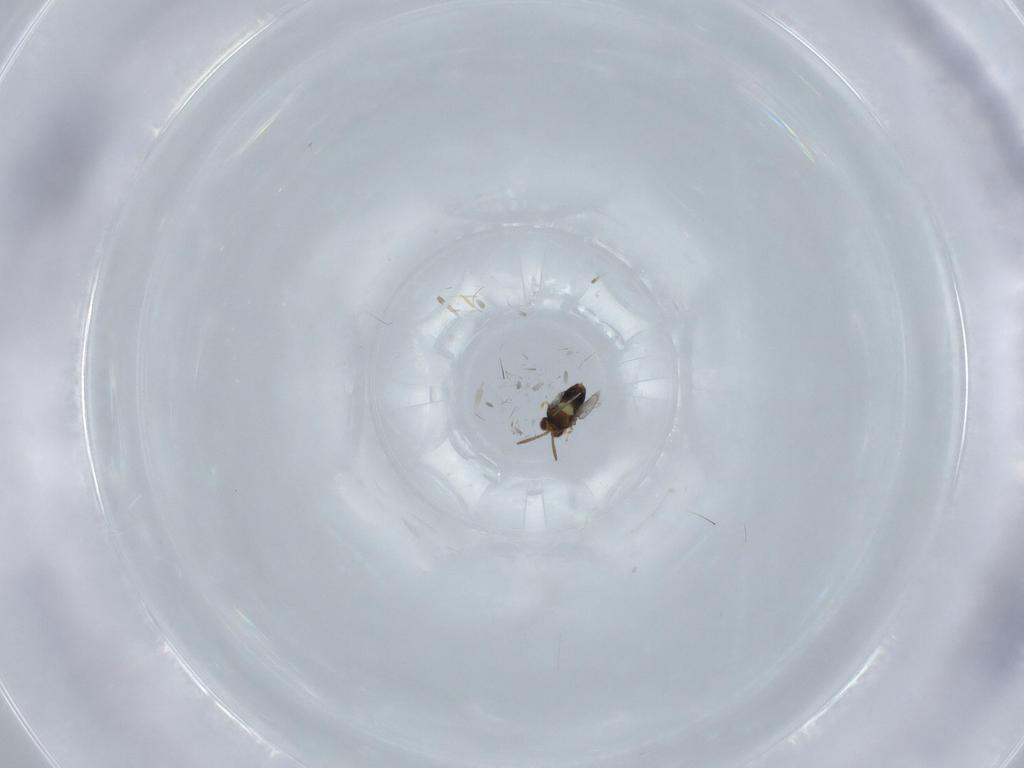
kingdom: Animalia
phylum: Arthropoda
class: Insecta
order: Hymenoptera
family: Aphelinidae
